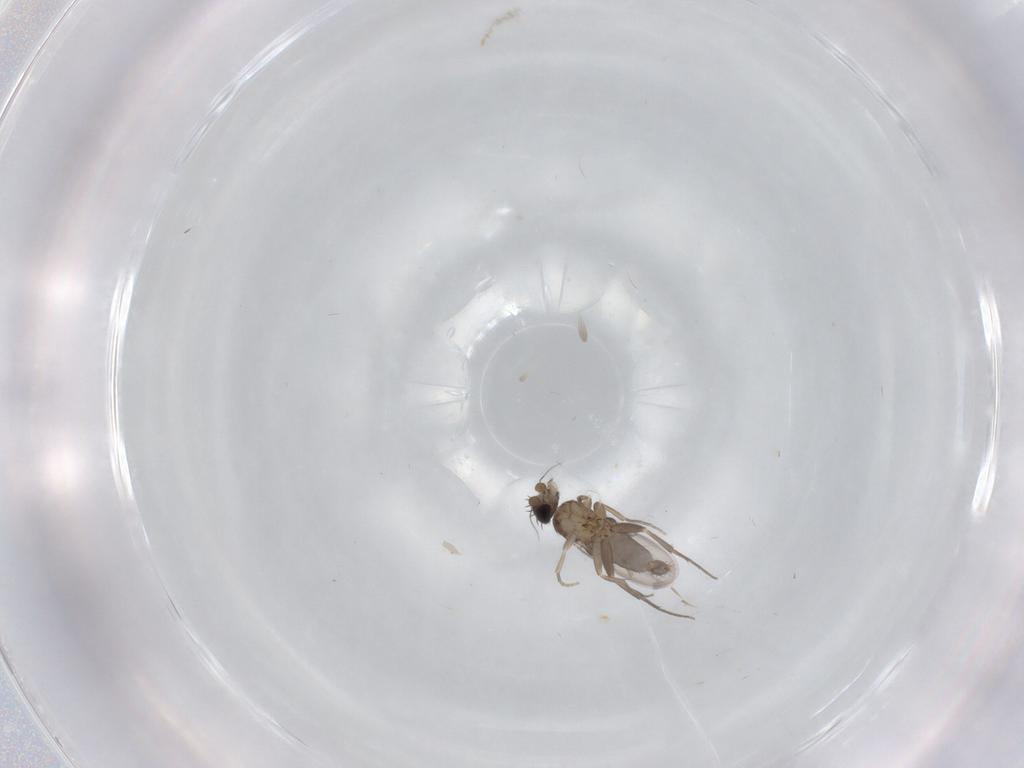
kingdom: Animalia
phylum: Arthropoda
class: Insecta
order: Diptera
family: Phoridae
